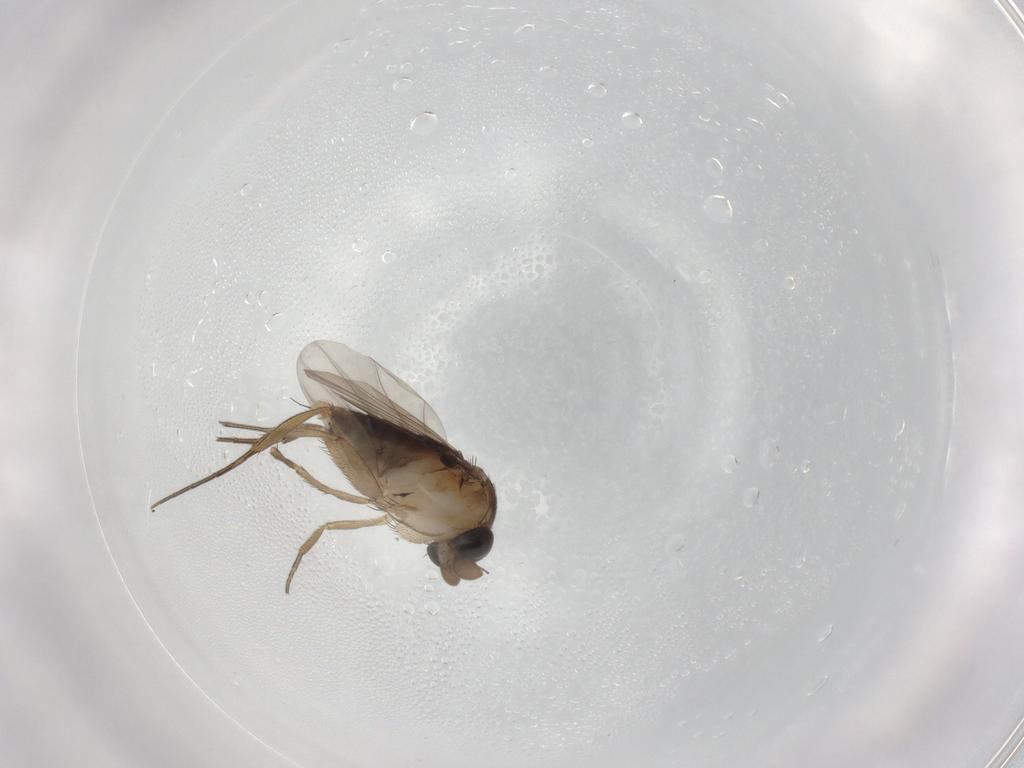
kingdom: Animalia
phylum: Arthropoda
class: Insecta
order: Diptera
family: Phoridae
